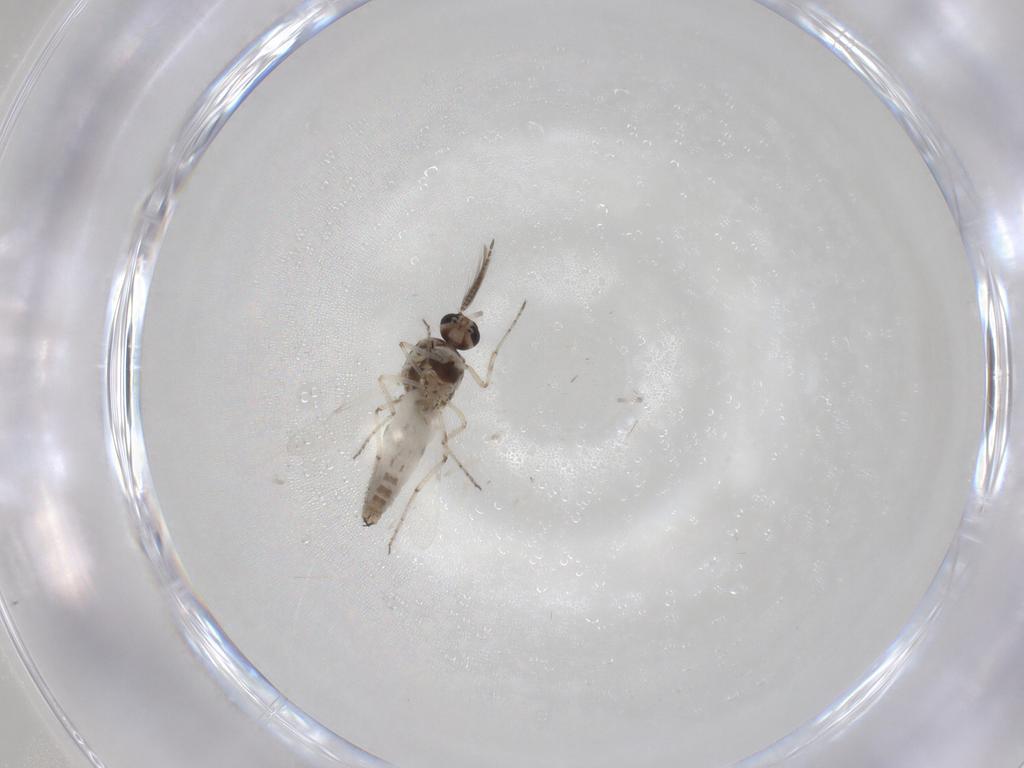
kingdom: Animalia
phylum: Arthropoda
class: Insecta
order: Diptera
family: Ceratopogonidae
